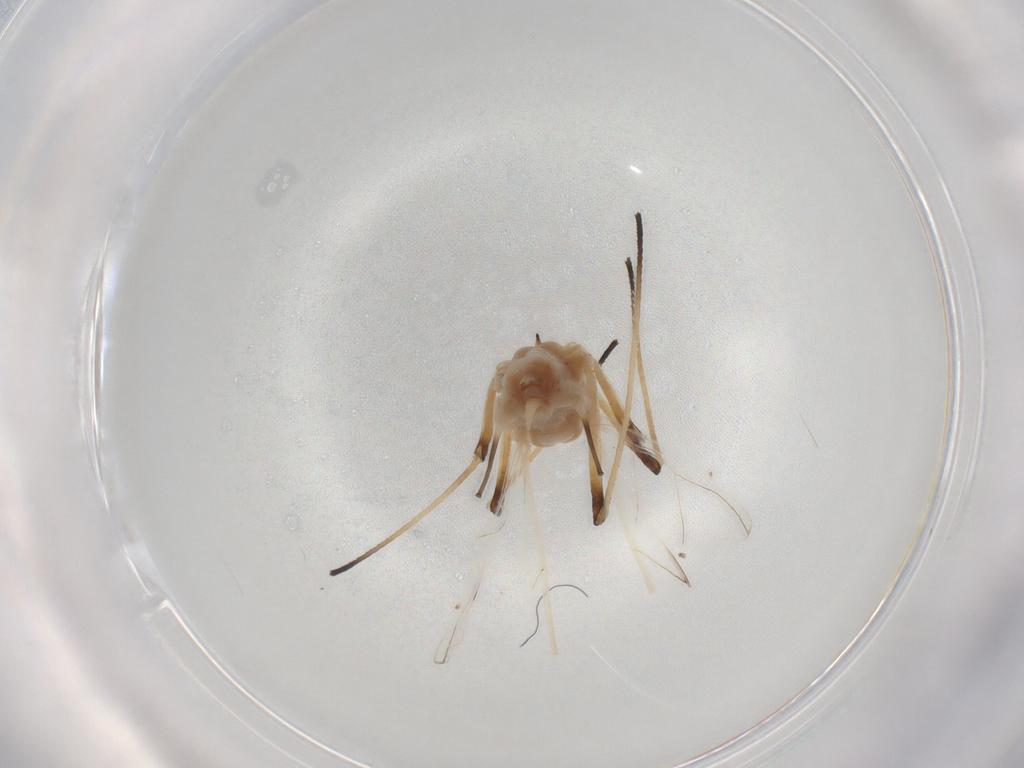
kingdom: Animalia
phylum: Arthropoda
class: Insecta
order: Hemiptera
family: Aphididae
